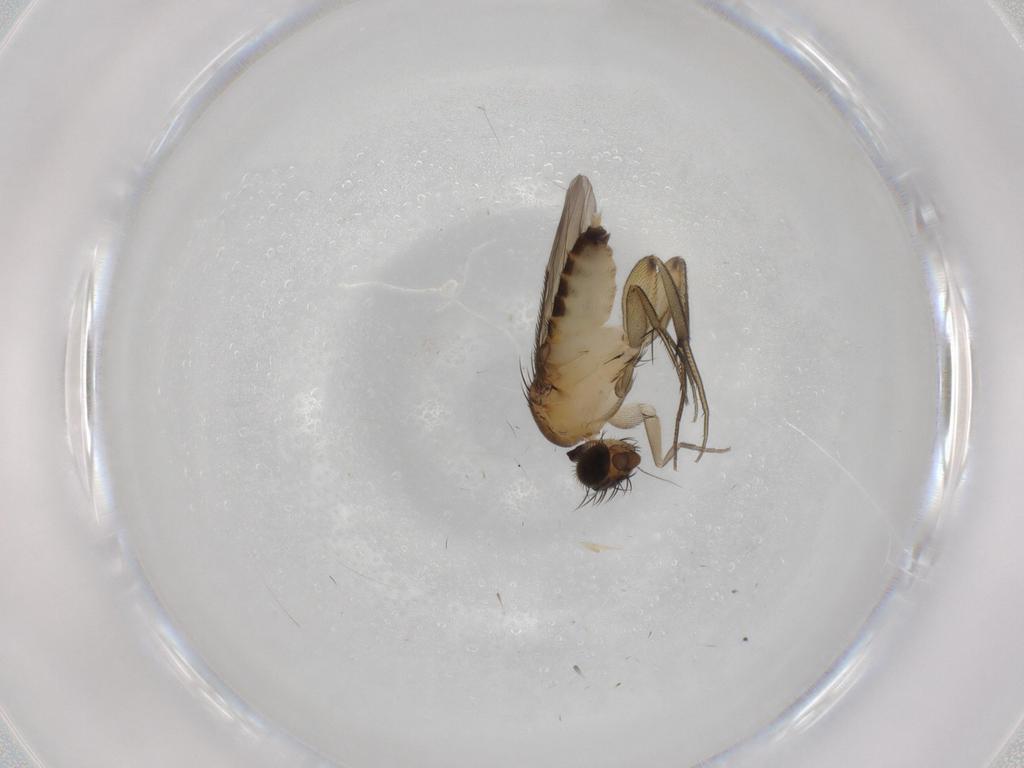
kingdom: Animalia
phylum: Arthropoda
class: Insecta
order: Diptera
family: Phoridae
